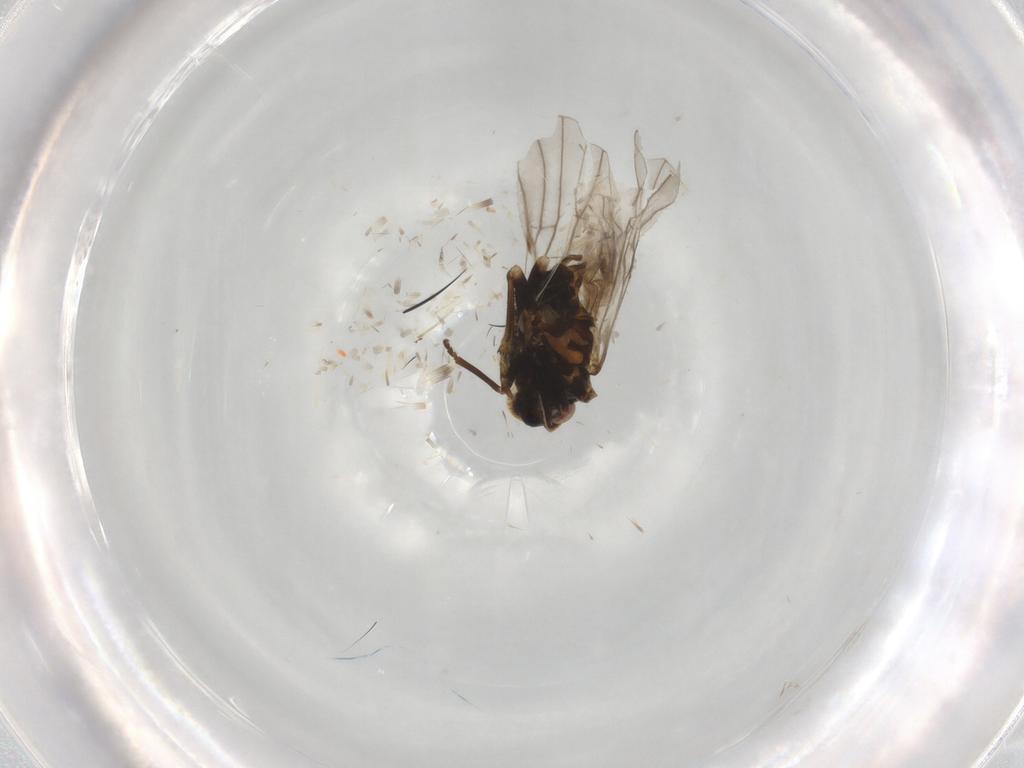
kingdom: Animalia
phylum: Arthropoda
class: Insecta
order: Hemiptera
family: Meenoplidae
